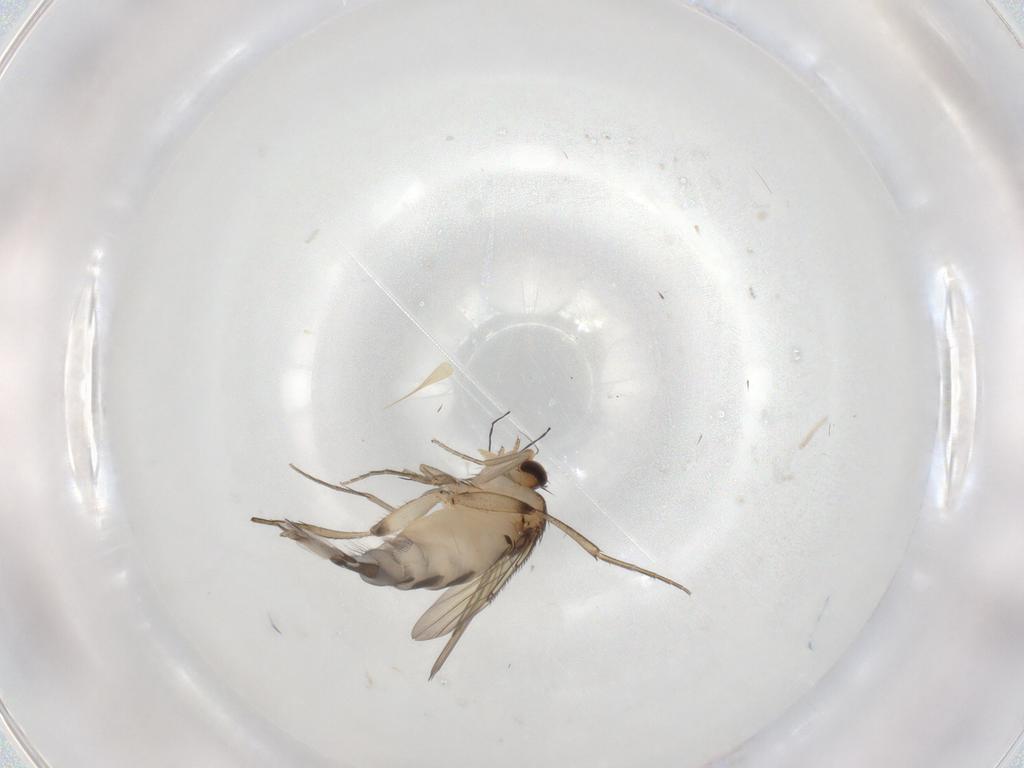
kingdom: Animalia
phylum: Arthropoda
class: Insecta
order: Diptera
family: Phoridae
